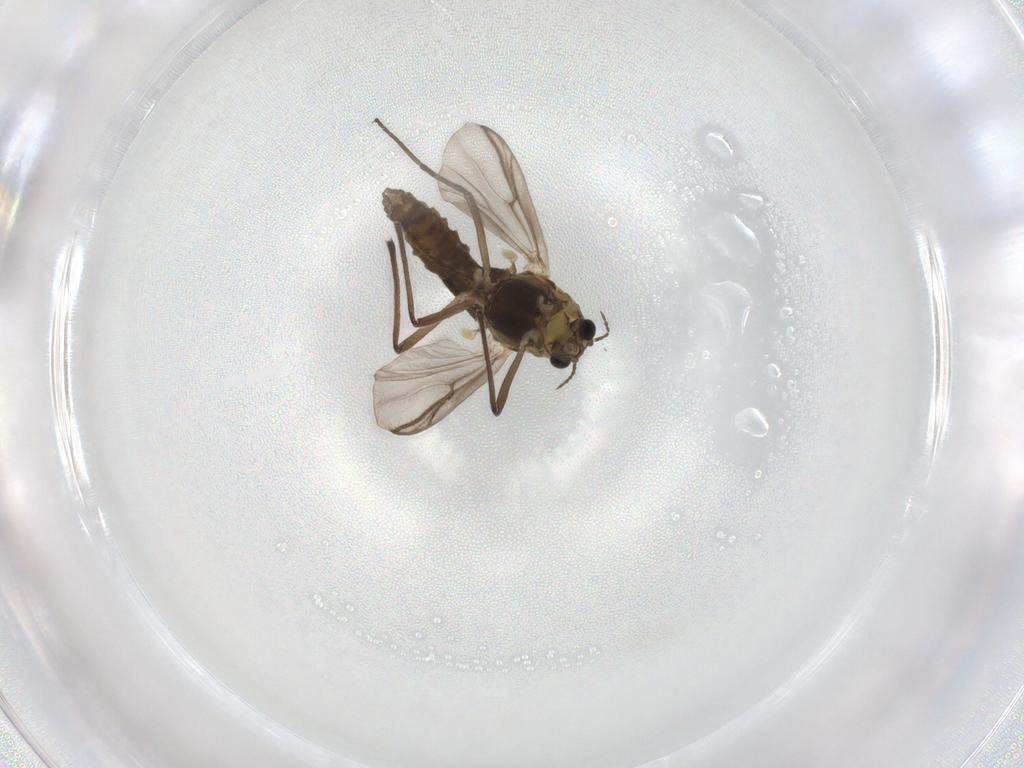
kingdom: Animalia
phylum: Arthropoda
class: Insecta
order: Diptera
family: Chironomidae
